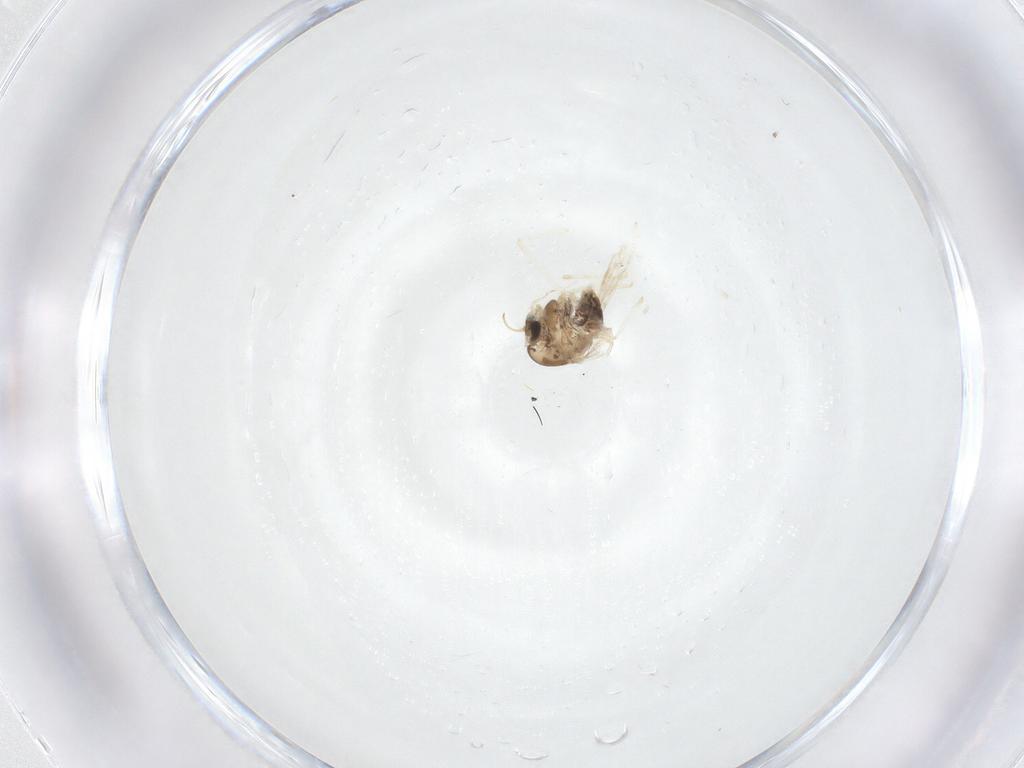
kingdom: Animalia
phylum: Arthropoda
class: Insecta
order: Diptera
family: Chironomidae
